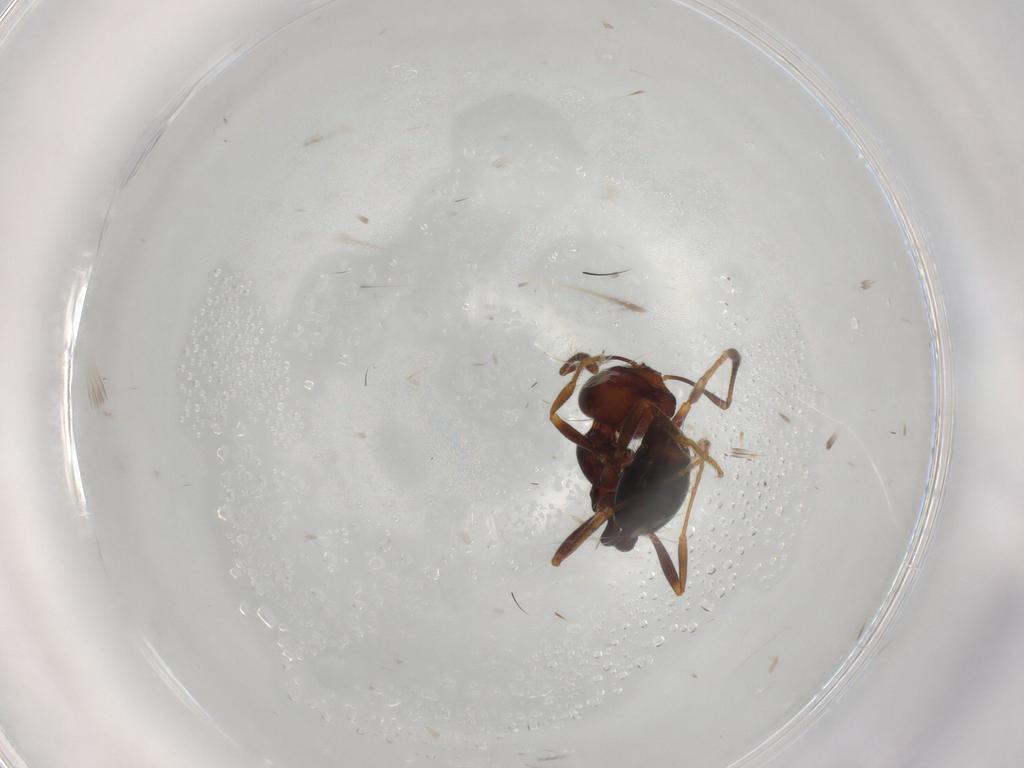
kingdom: Animalia
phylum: Arthropoda
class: Insecta
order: Hymenoptera
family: Formicidae
